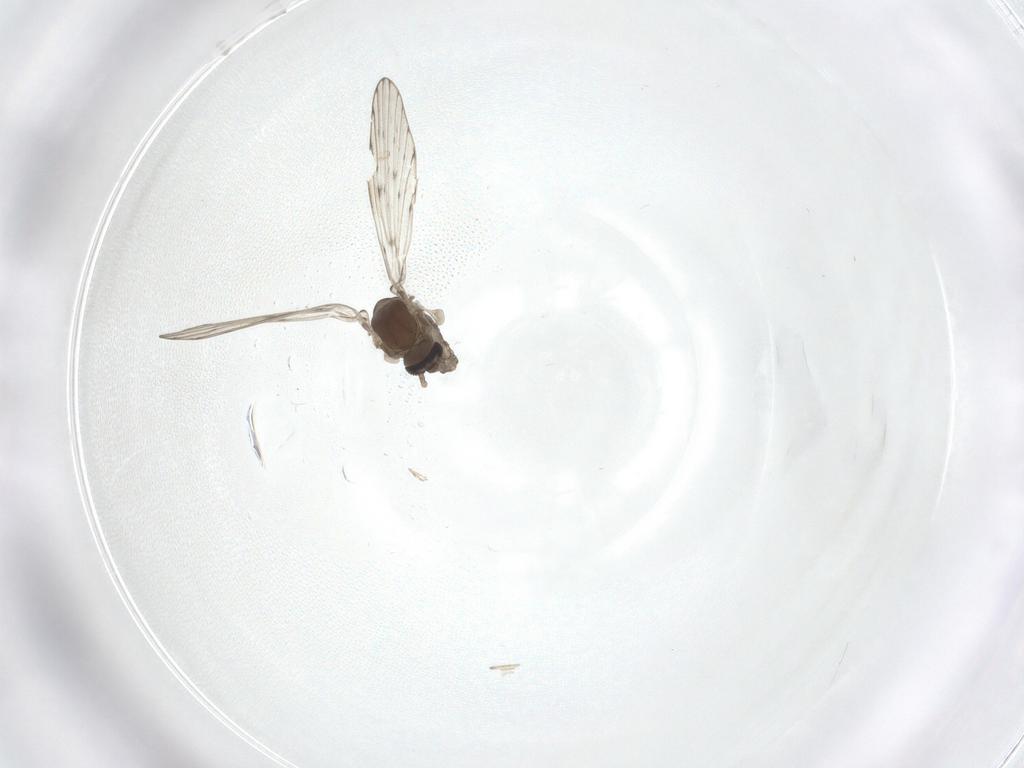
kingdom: Animalia
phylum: Arthropoda
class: Insecta
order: Diptera
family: Psychodidae
